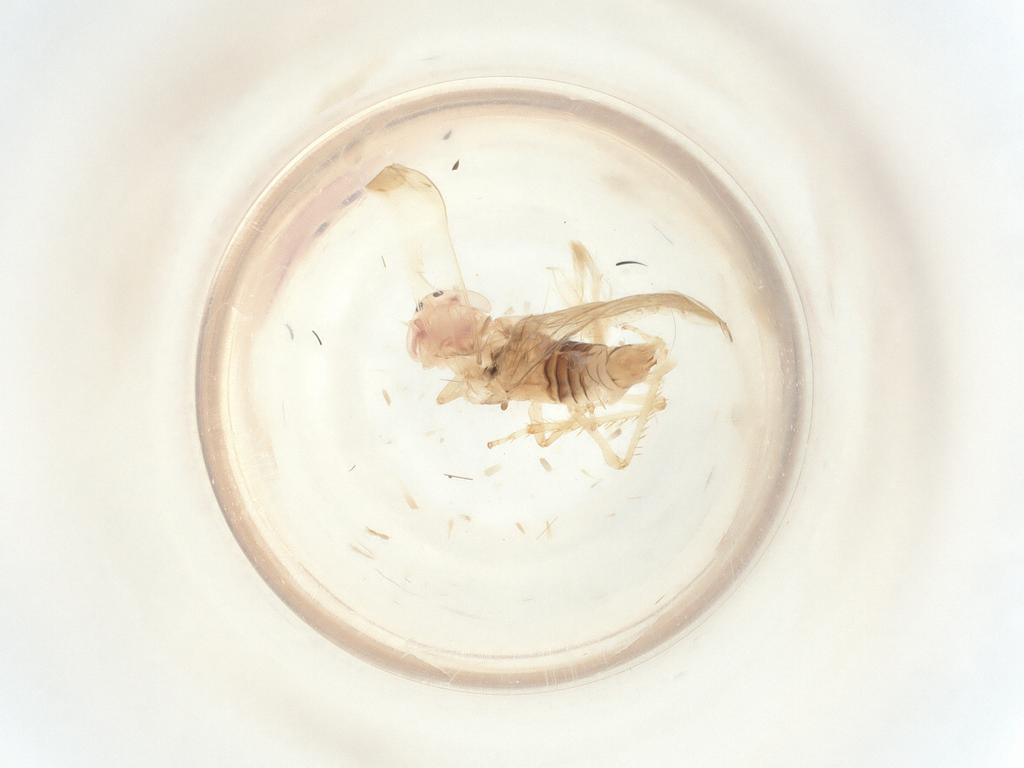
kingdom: Animalia
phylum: Arthropoda
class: Insecta
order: Hemiptera
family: Cicadellidae
